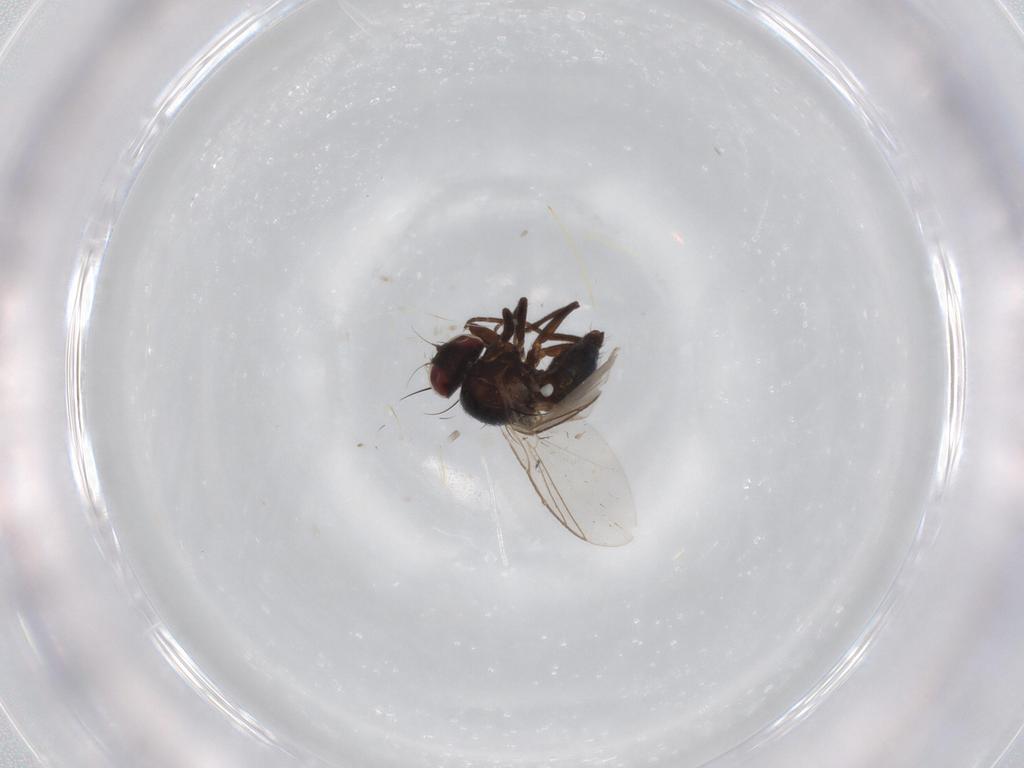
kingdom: Animalia
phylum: Arthropoda
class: Insecta
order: Diptera
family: Dolichopodidae
